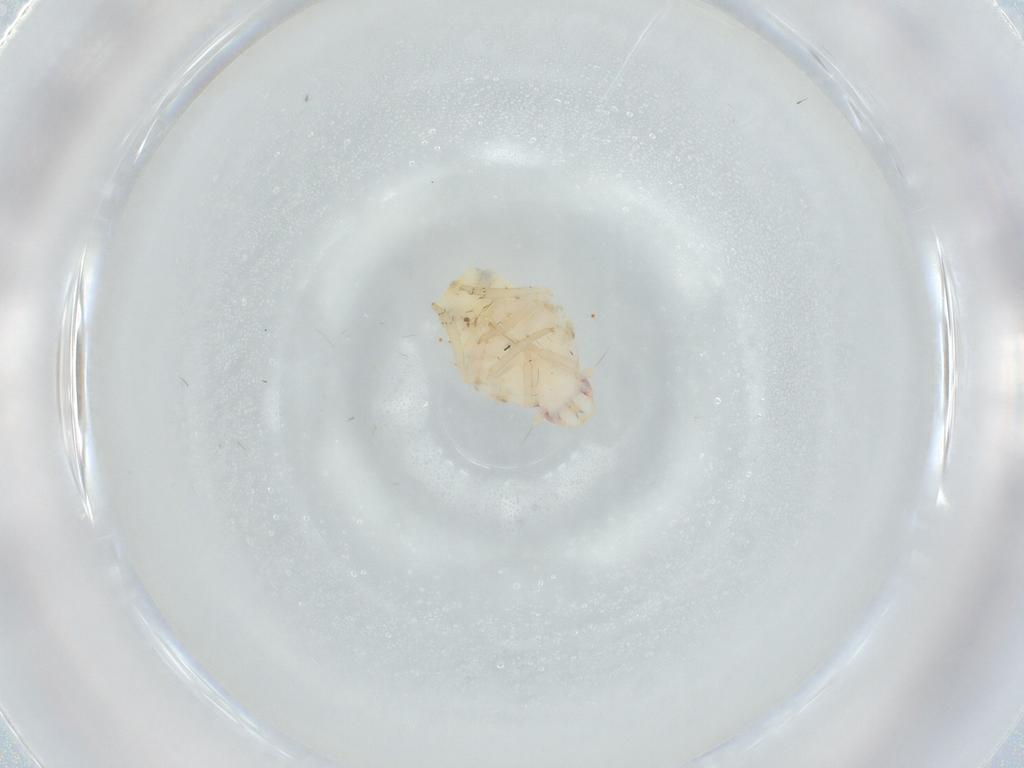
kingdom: Animalia
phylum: Arthropoda
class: Insecta
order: Hemiptera
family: Flatidae
